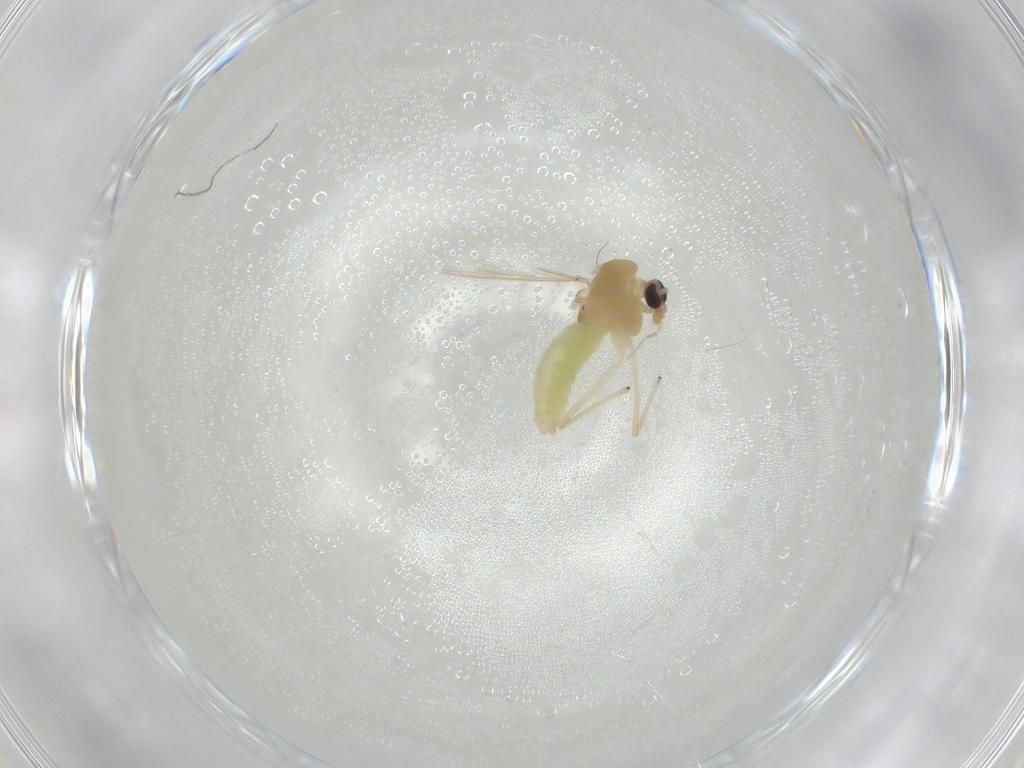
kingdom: Animalia
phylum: Arthropoda
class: Insecta
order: Diptera
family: Chironomidae
